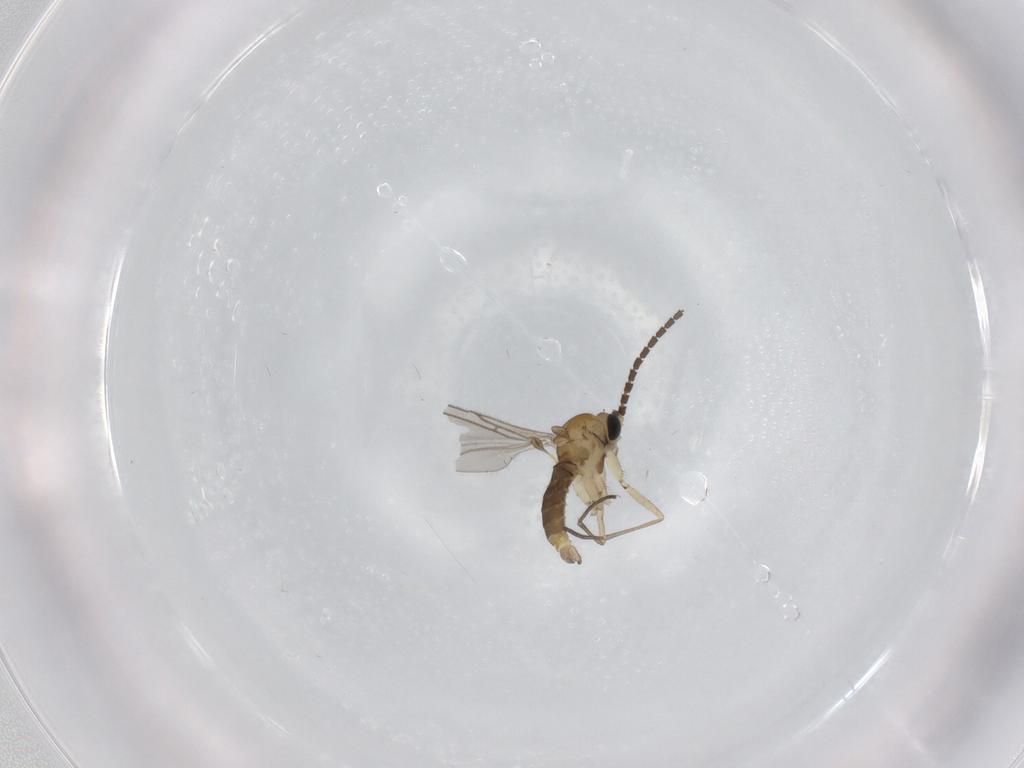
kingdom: Animalia
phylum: Arthropoda
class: Insecta
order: Diptera
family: Sciaridae
